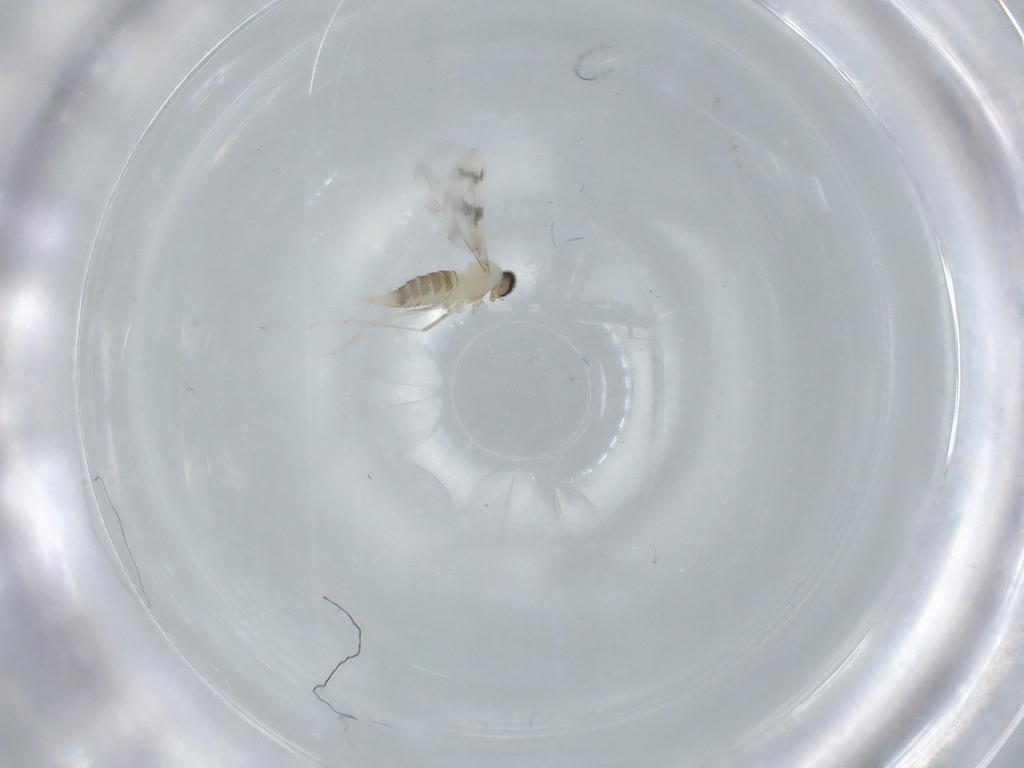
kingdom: Animalia
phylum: Arthropoda
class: Insecta
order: Diptera
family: Cecidomyiidae
